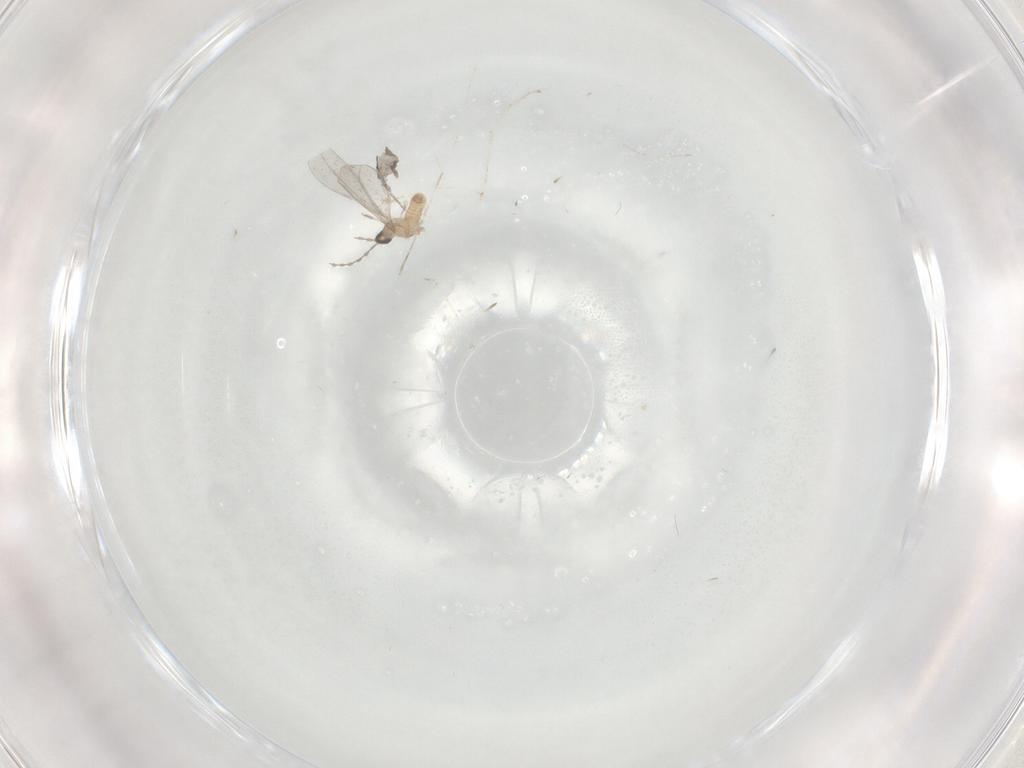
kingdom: Animalia
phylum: Arthropoda
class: Insecta
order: Diptera
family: Cecidomyiidae
